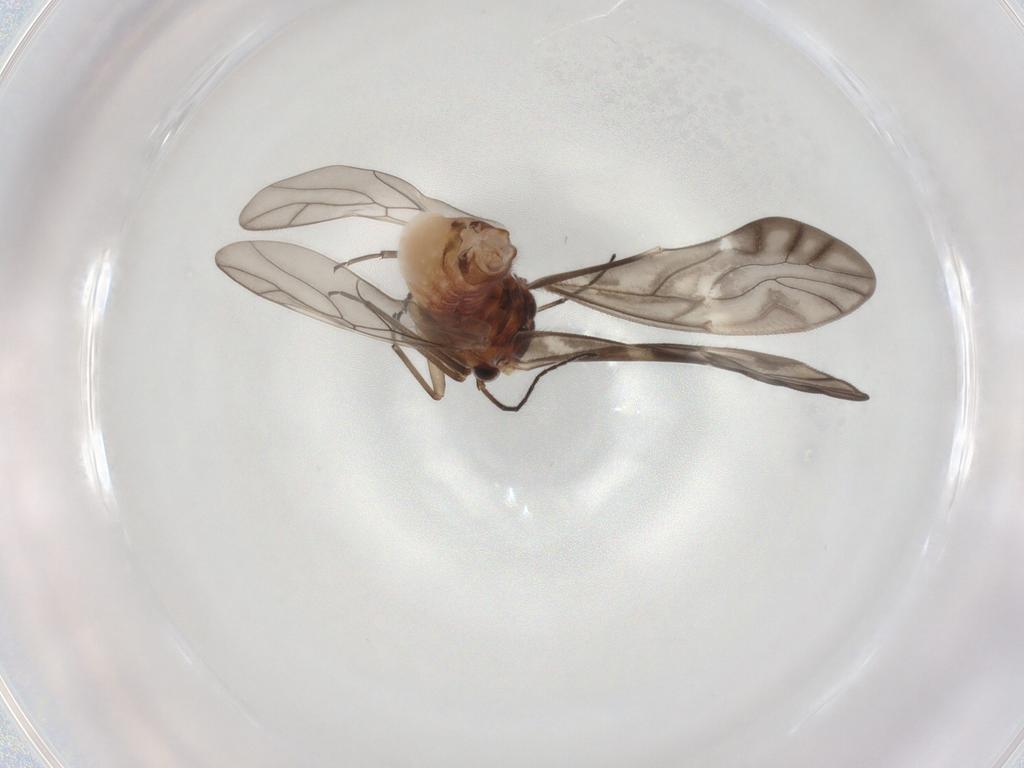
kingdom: Animalia
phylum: Arthropoda
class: Insecta
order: Psocodea
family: Caeciliusidae
